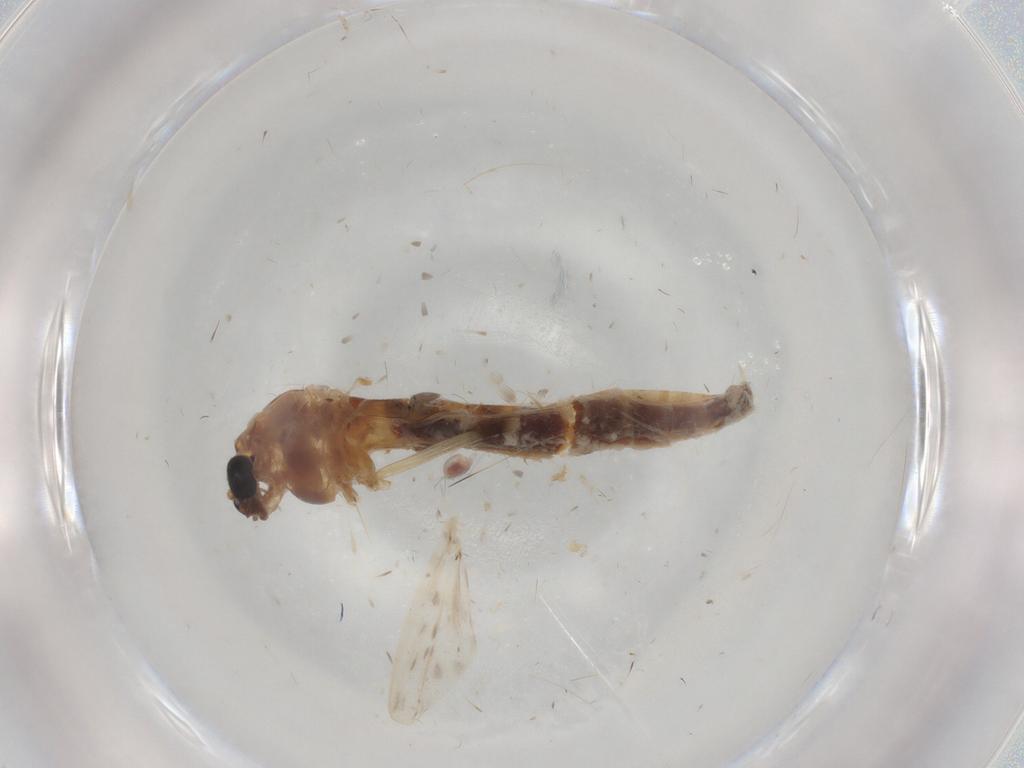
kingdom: Animalia
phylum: Arthropoda
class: Insecta
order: Diptera
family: Chironomidae
